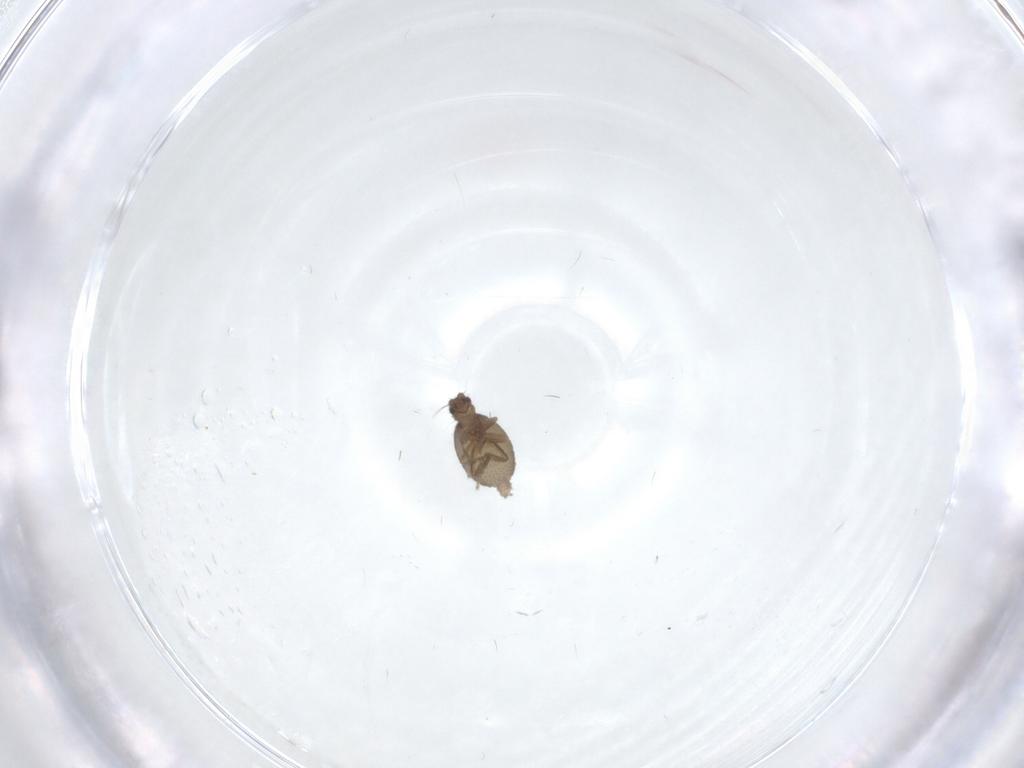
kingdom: Animalia
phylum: Arthropoda
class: Insecta
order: Diptera
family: Phoridae
